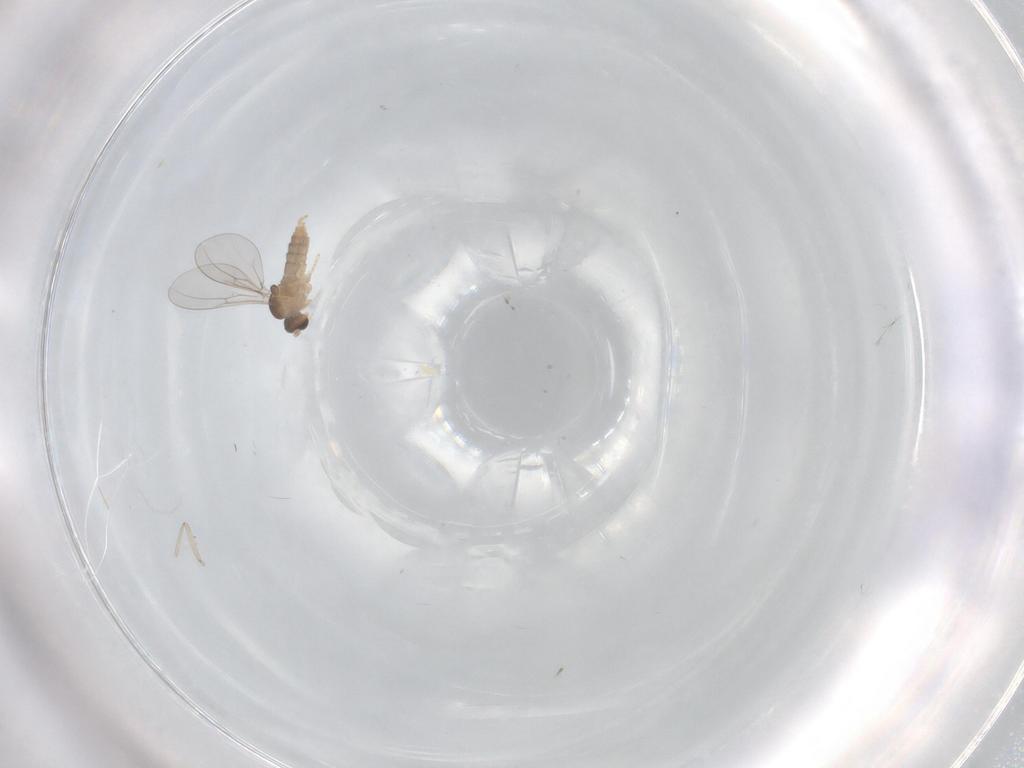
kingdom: Animalia
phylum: Arthropoda
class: Insecta
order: Diptera
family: Cecidomyiidae
